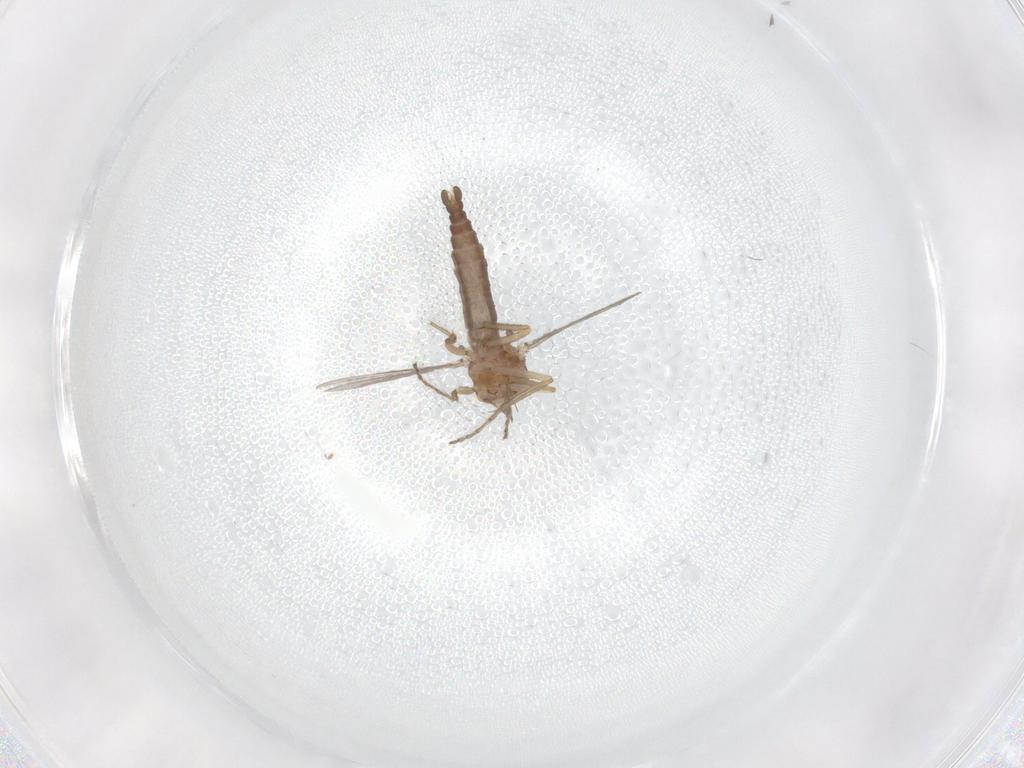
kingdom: Animalia
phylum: Arthropoda
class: Insecta
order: Diptera
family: Ceratopogonidae
